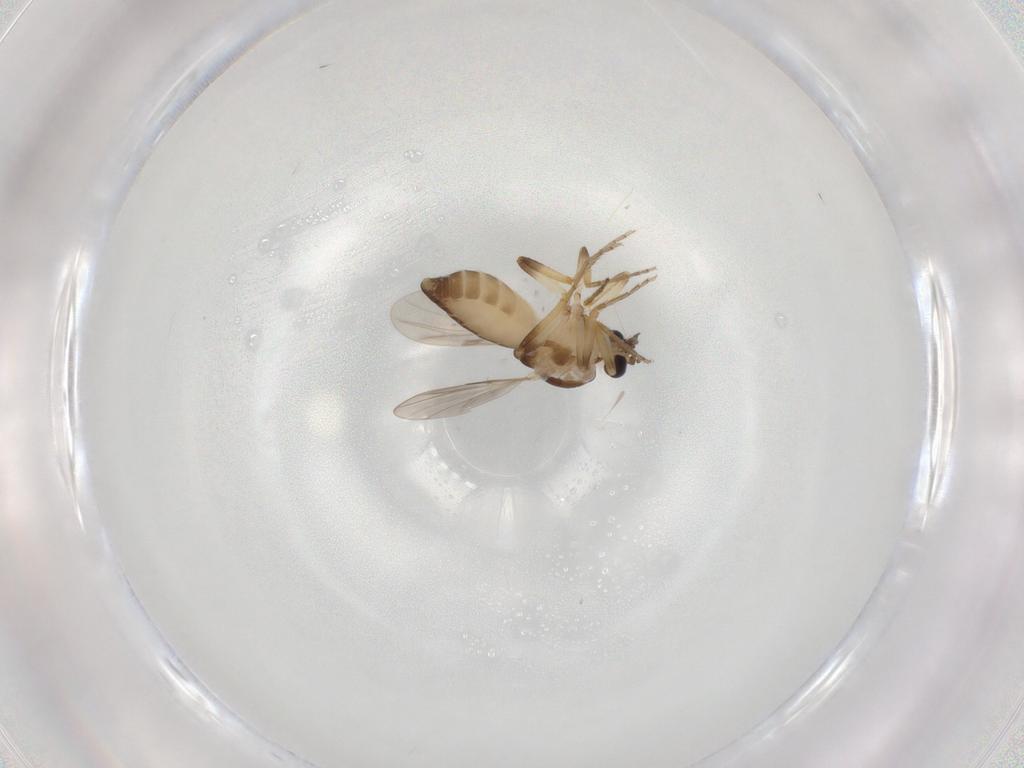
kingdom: Animalia
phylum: Arthropoda
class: Insecta
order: Diptera
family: Ceratopogonidae
